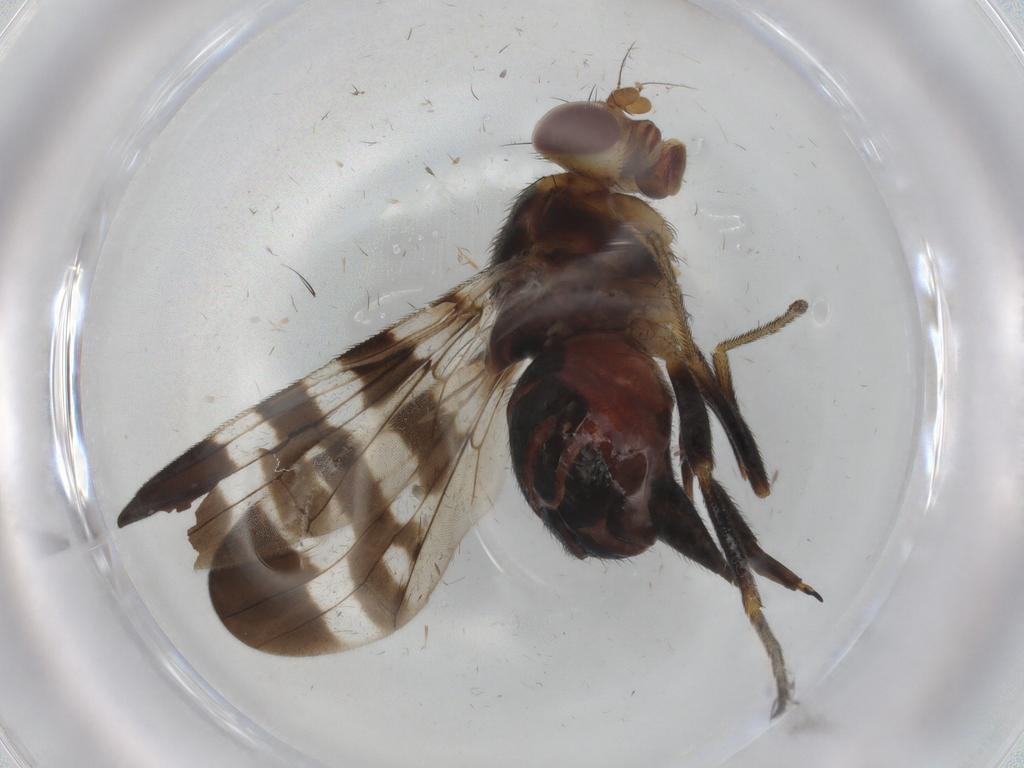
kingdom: Animalia
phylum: Arthropoda
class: Insecta
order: Diptera
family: Tephritidae
